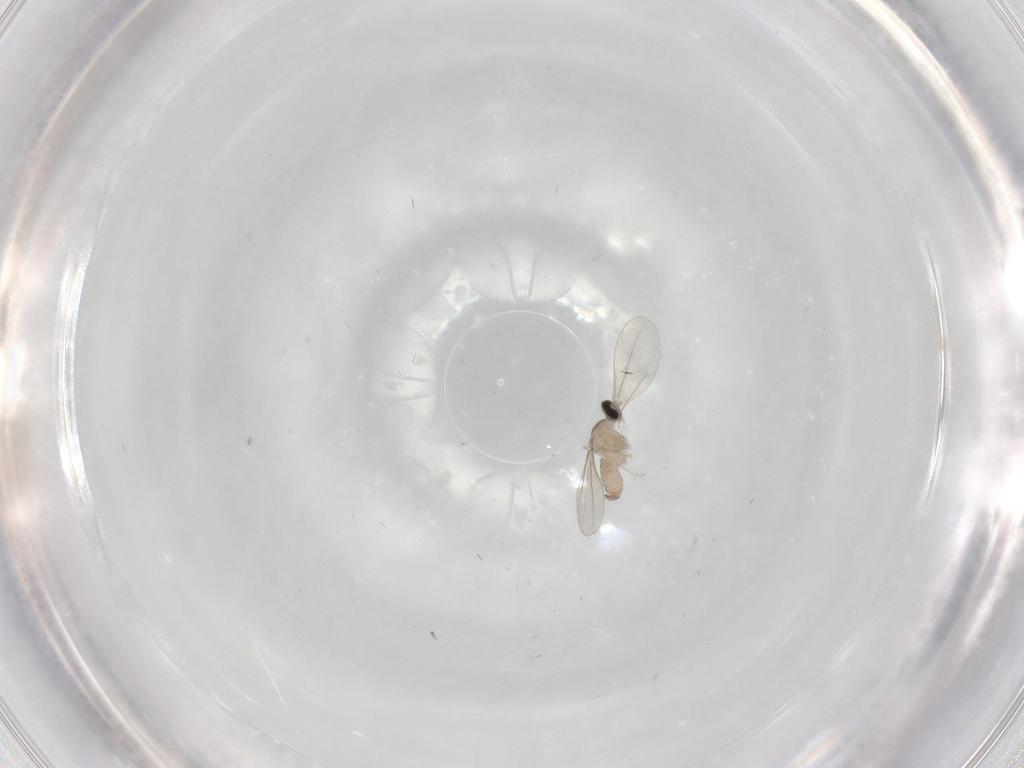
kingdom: Animalia
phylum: Arthropoda
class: Insecta
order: Diptera
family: Cecidomyiidae
